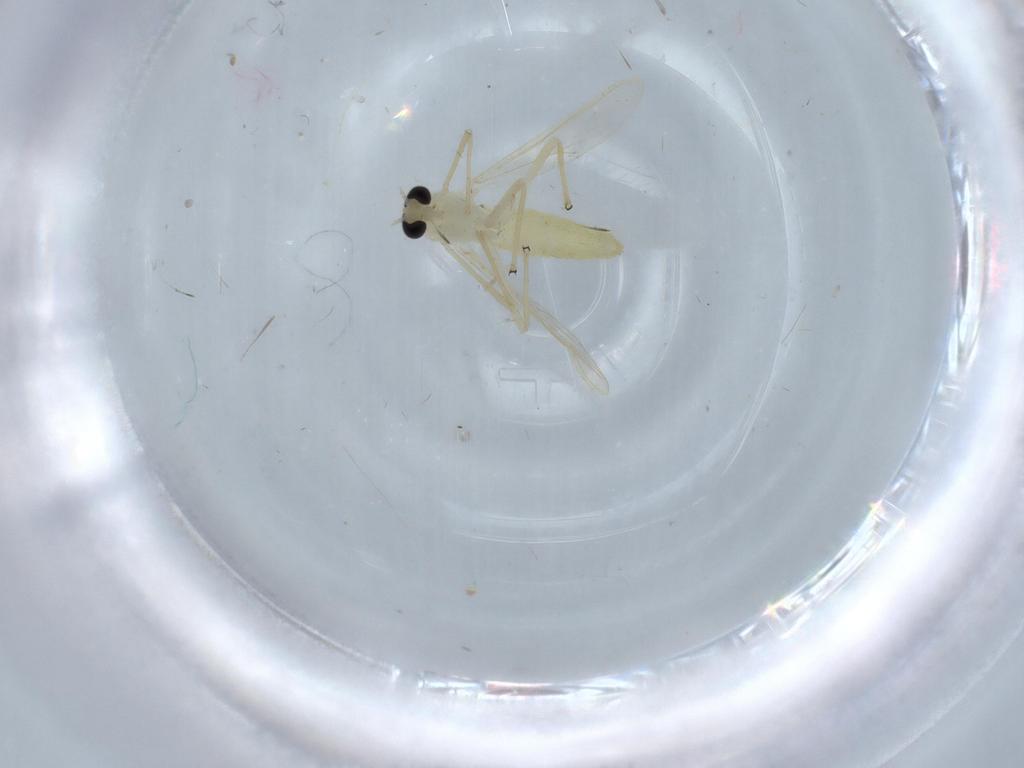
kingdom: Animalia
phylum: Arthropoda
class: Insecta
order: Diptera
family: Chironomidae
